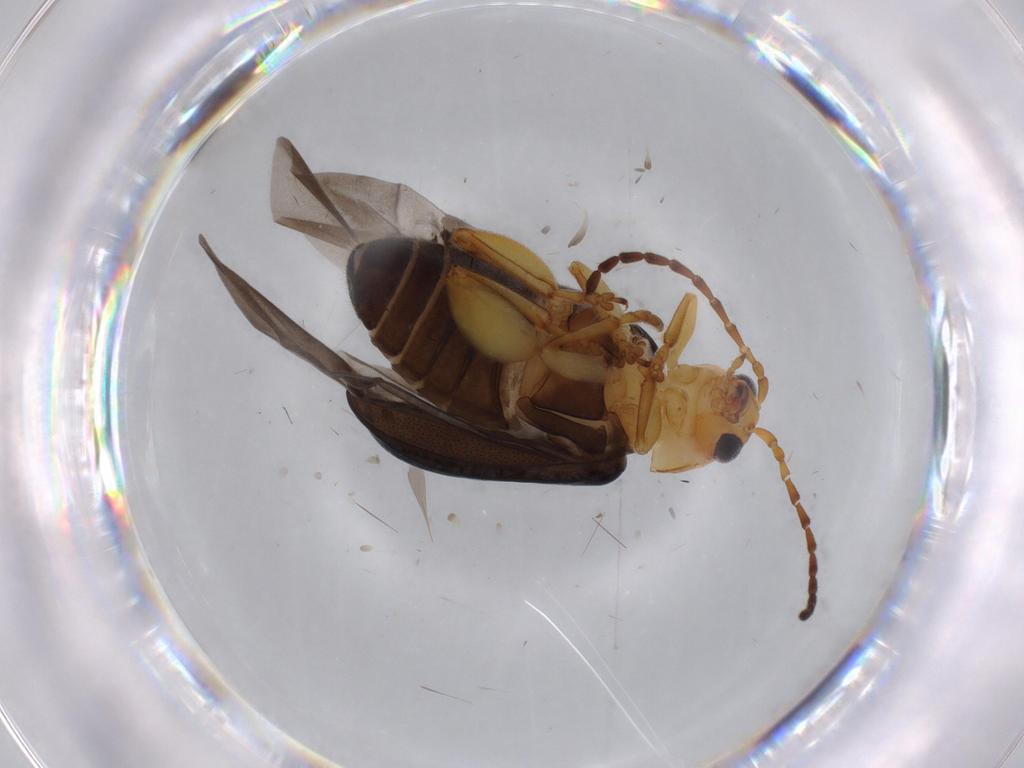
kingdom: Animalia
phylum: Arthropoda
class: Insecta
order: Coleoptera
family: Chrysomelidae
